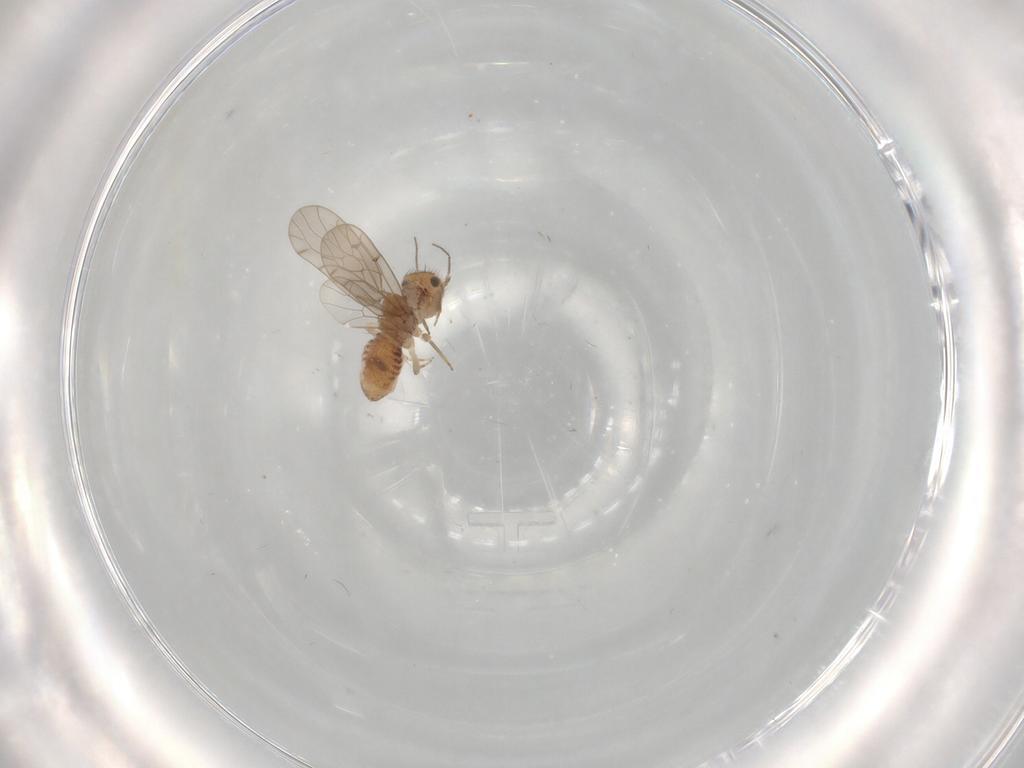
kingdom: Animalia
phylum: Arthropoda
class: Insecta
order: Psocodea
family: Ectopsocidae
